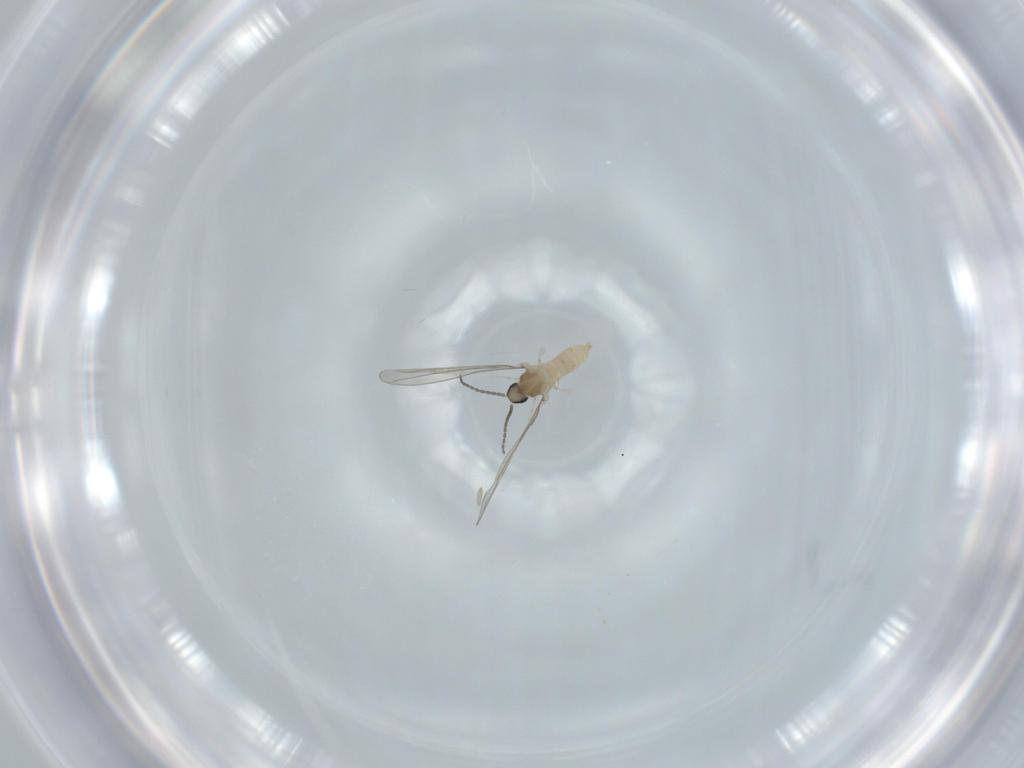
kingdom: Animalia
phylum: Arthropoda
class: Insecta
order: Diptera
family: Cecidomyiidae
